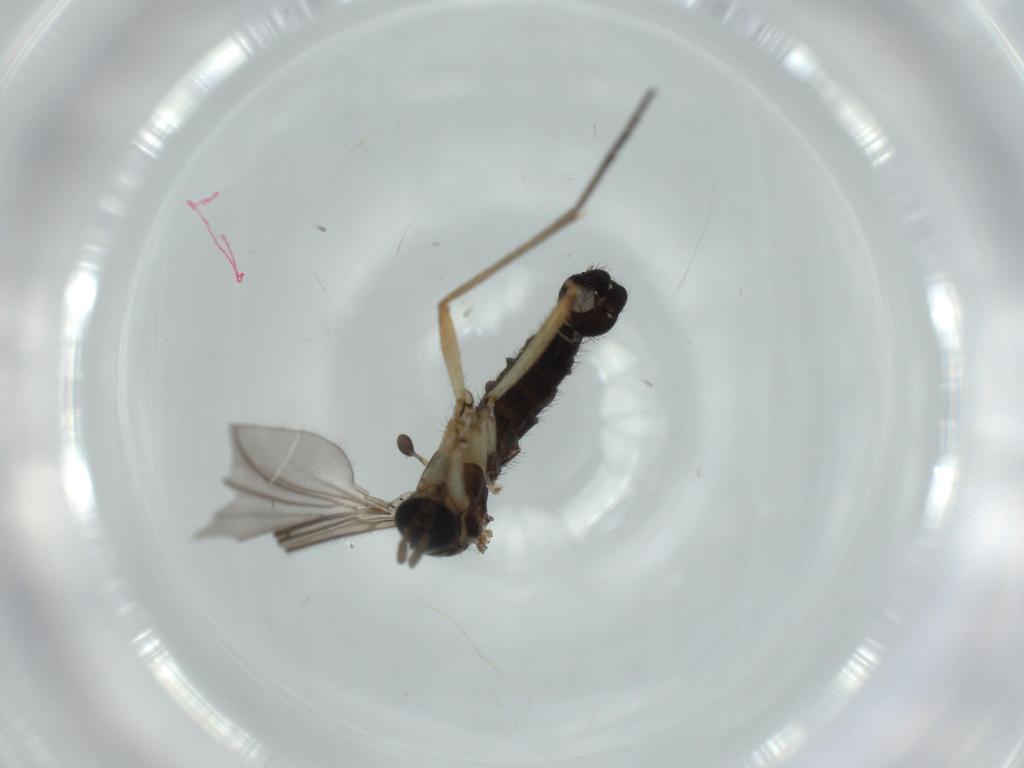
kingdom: Animalia
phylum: Arthropoda
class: Insecta
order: Diptera
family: Sciaridae
